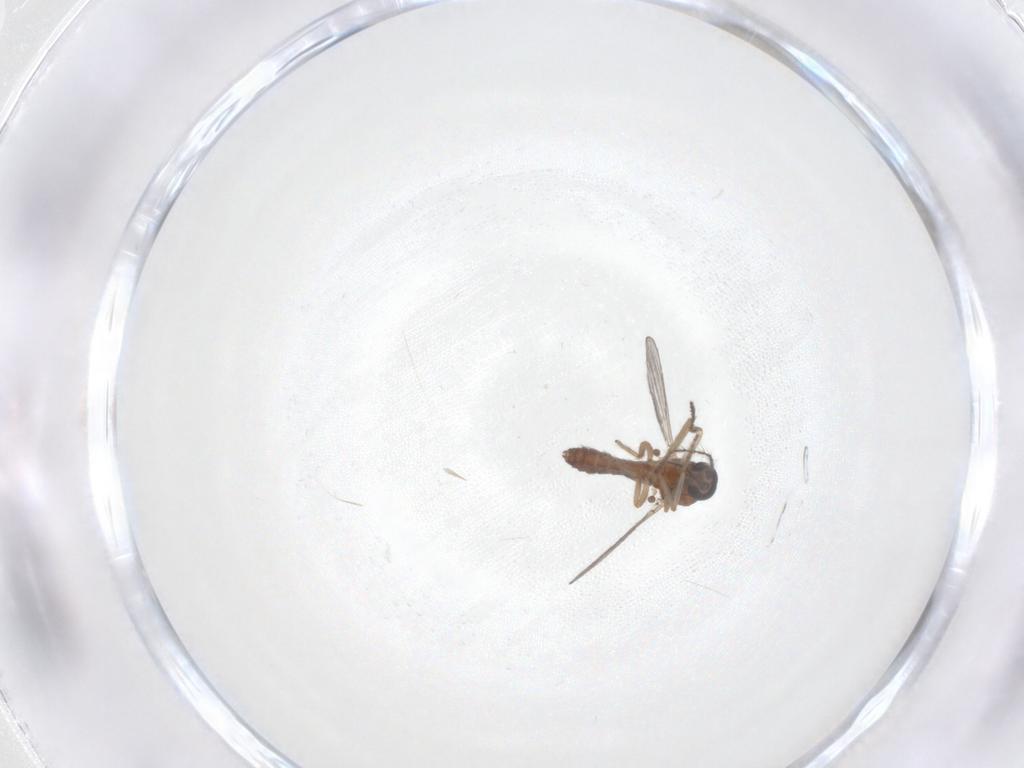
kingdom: Animalia
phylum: Arthropoda
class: Insecta
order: Diptera
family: Ceratopogonidae
